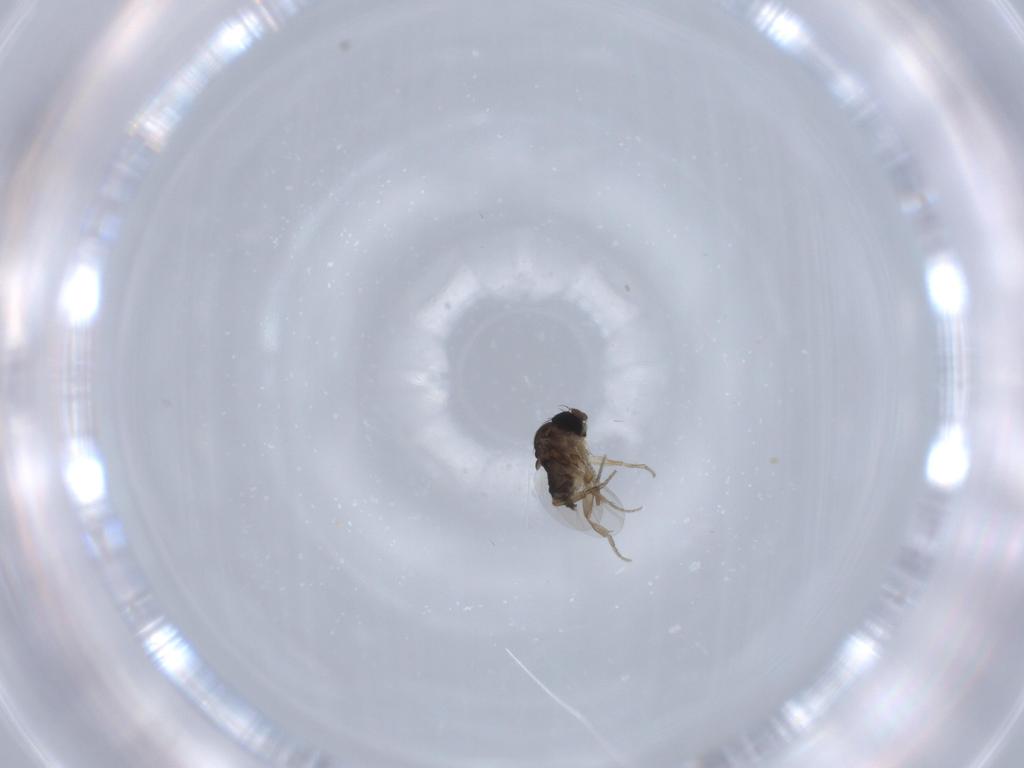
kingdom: Animalia
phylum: Arthropoda
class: Insecta
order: Diptera
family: Phoridae
